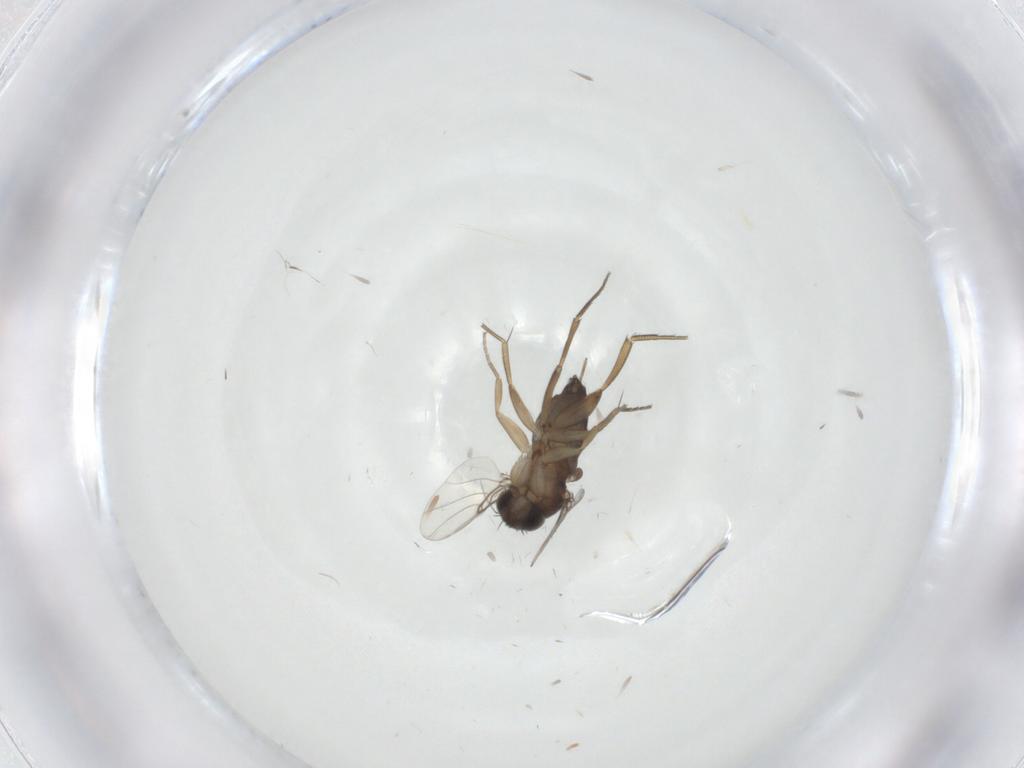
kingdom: Animalia
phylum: Arthropoda
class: Insecta
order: Diptera
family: Phoridae
